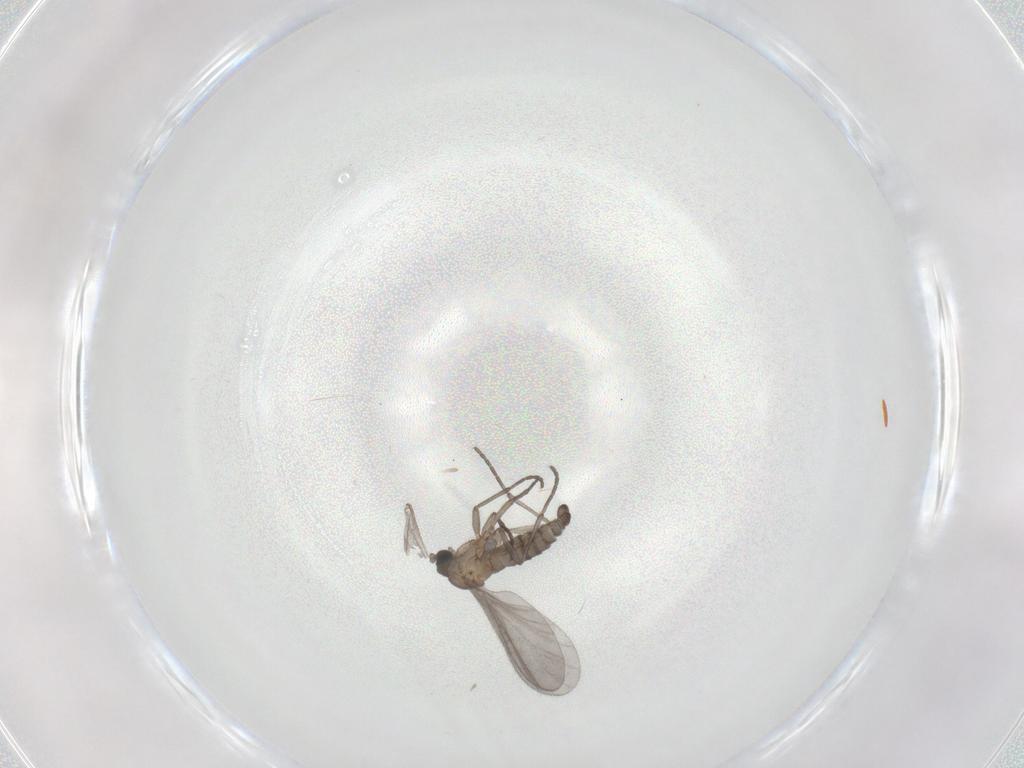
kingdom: Animalia
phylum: Arthropoda
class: Insecta
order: Diptera
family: Sciaridae
